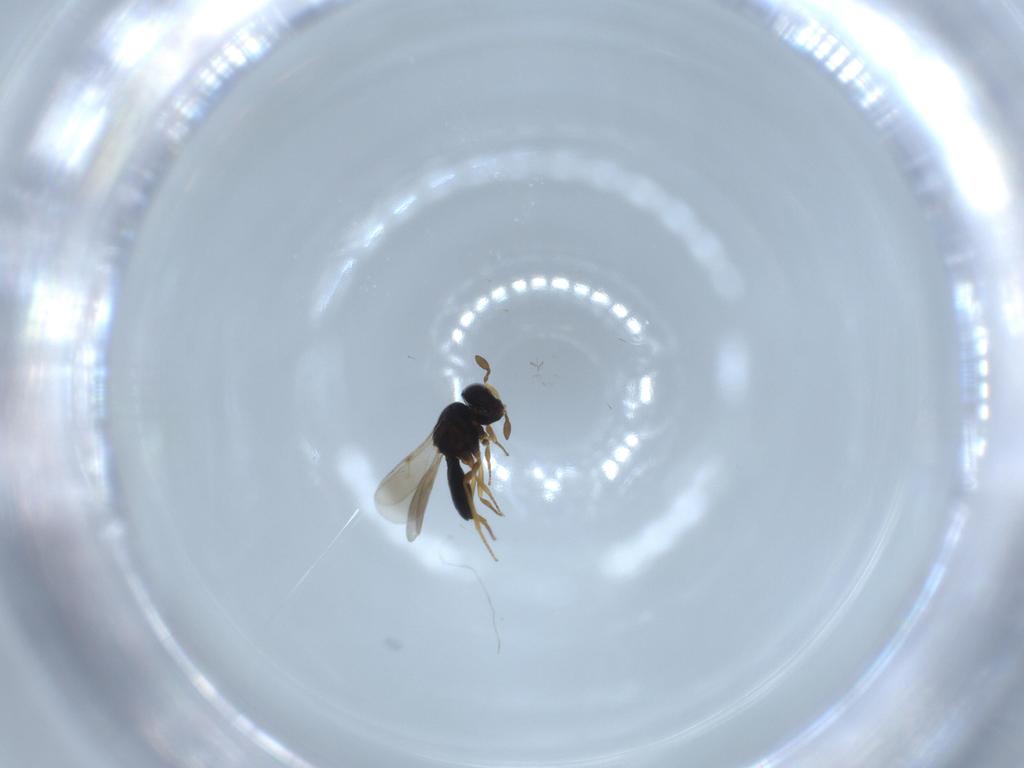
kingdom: Animalia
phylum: Arthropoda
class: Insecta
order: Hymenoptera
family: Scelionidae
